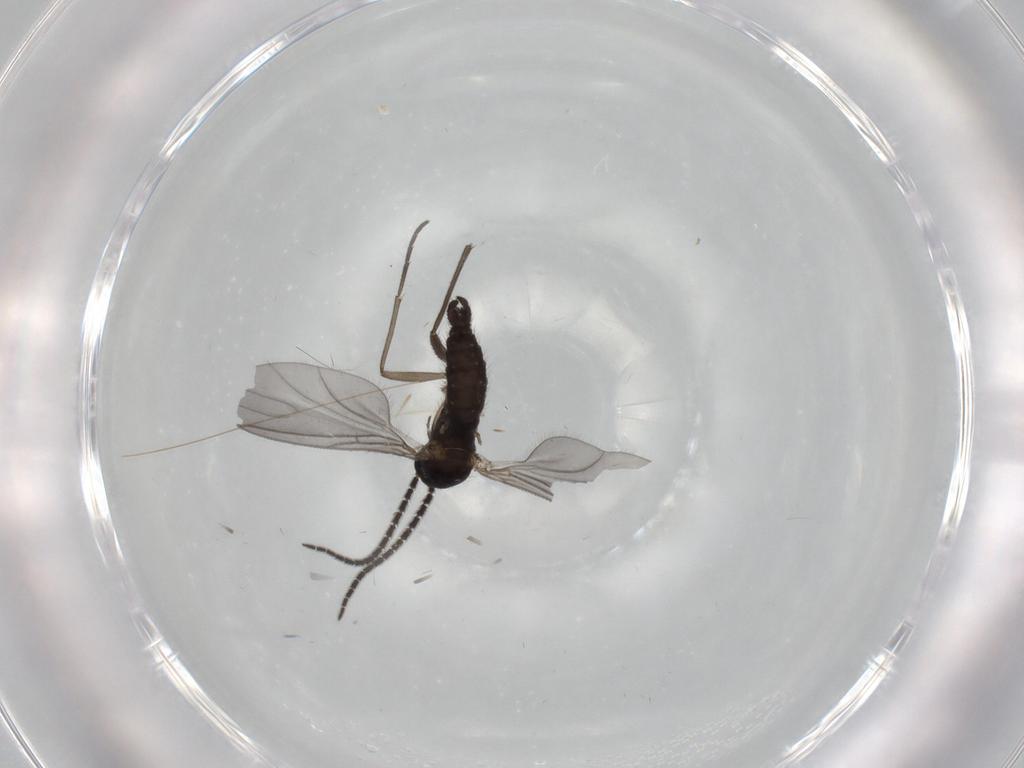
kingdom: Animalia
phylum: Arthropoda
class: Insecta
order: Diptera
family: Sciaridae
